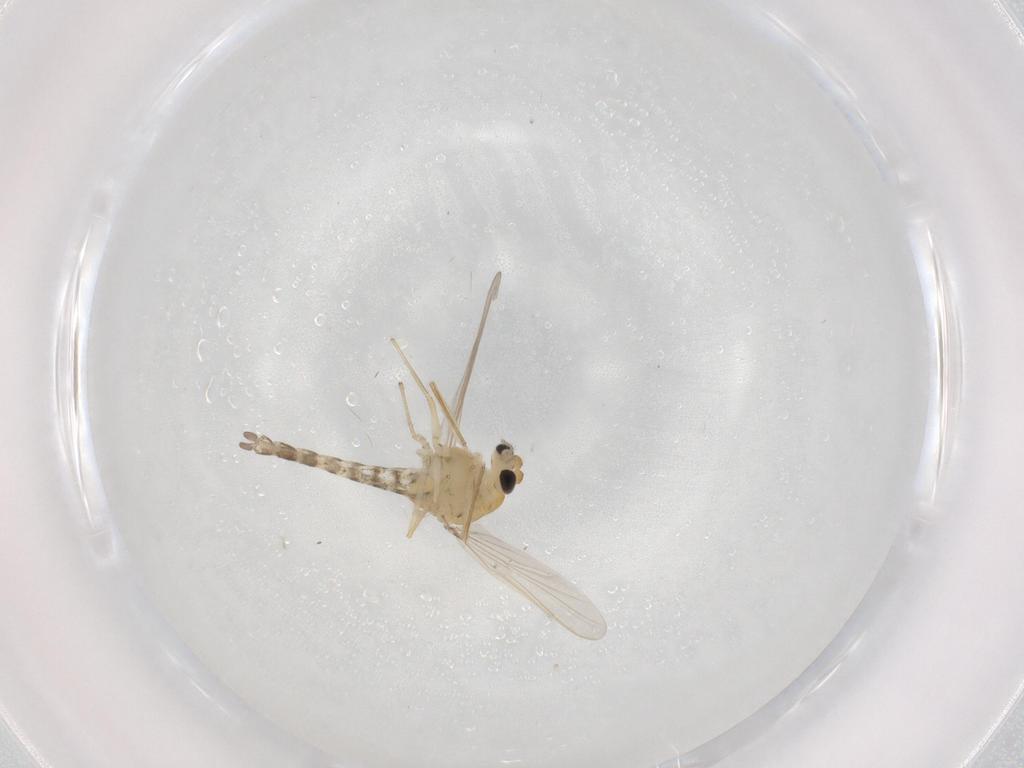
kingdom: Animalia
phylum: Arthropoda
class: Insecta
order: Diptera
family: Chironomidae
